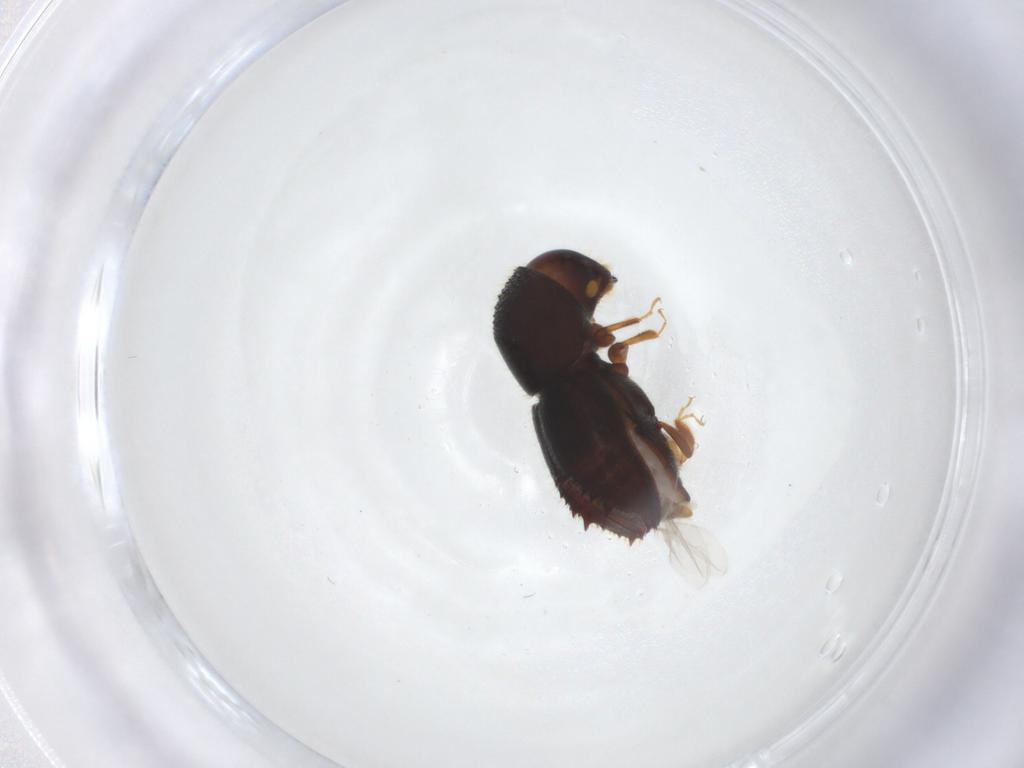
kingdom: Animalia
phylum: Arthropoda
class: Insecta
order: Coleoptera
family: Curculionidae
